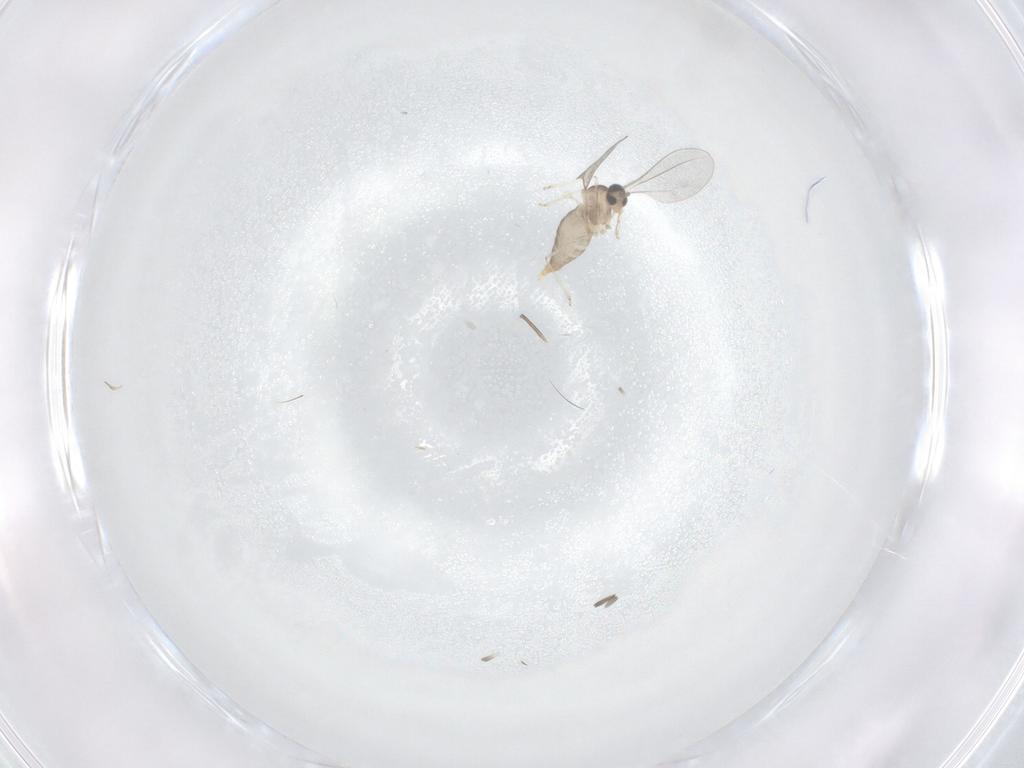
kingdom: Animalia
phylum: Arthropoda
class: Insecta
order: Diptera
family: Cecidomyiidae
